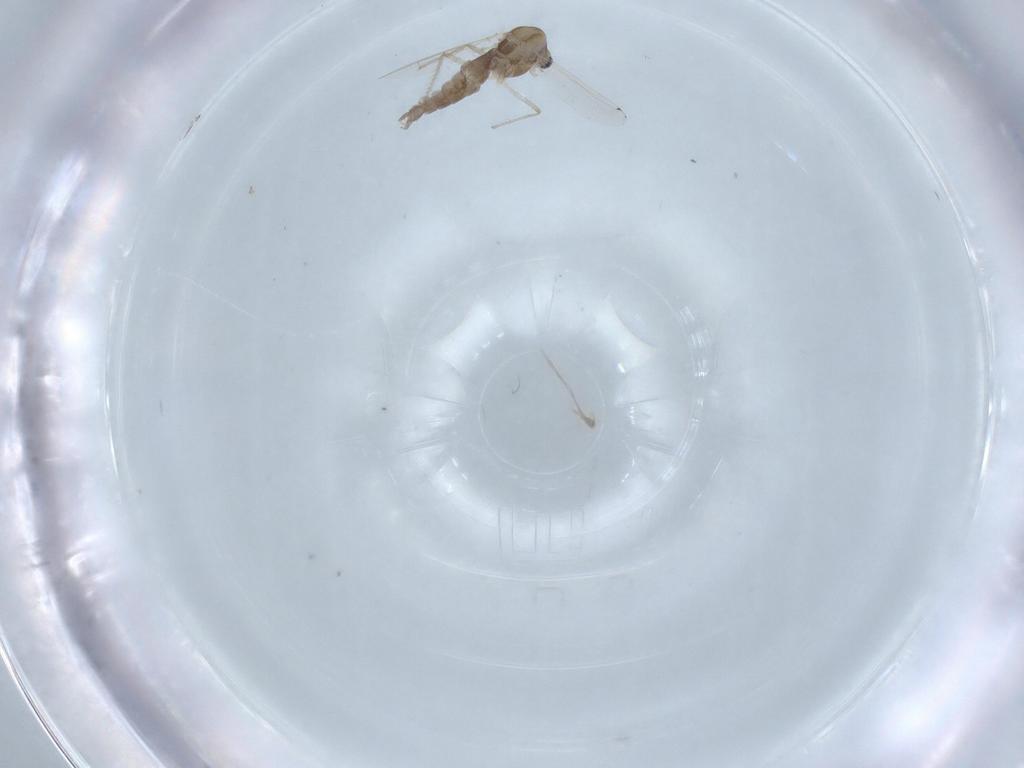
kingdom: Animalia
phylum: Arthropoda
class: Insecta
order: Diptera
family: Chironomidae
